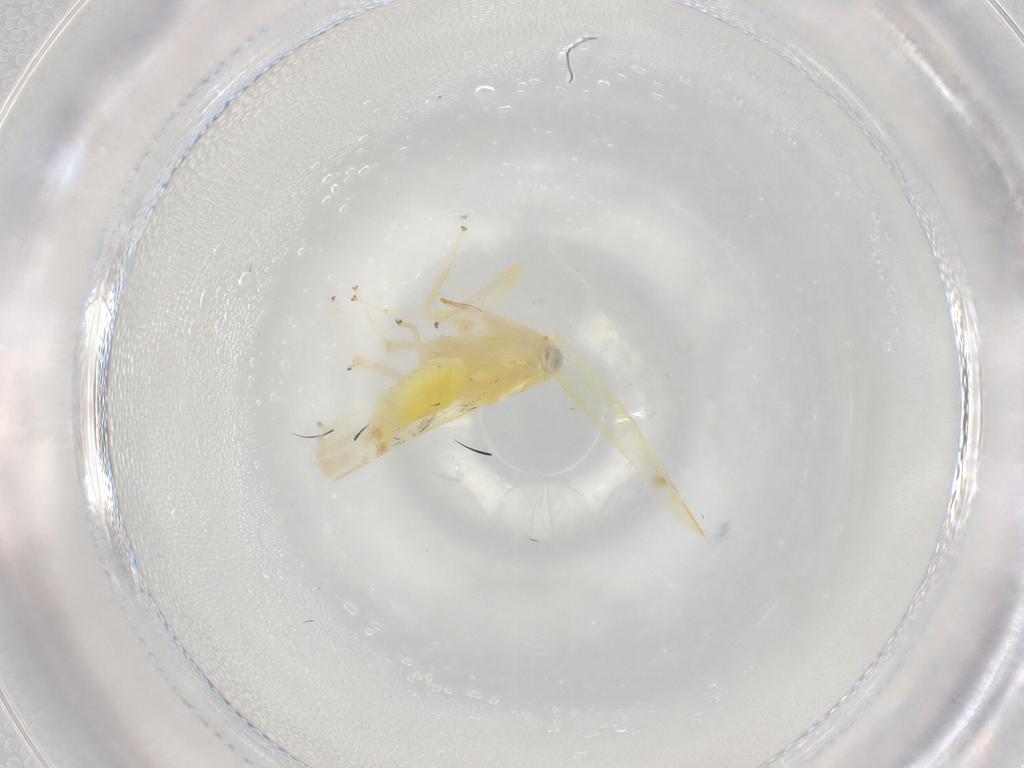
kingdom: Animalia
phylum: Arthropoda
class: Insecta
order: Hemiptera
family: Cicadellidae
